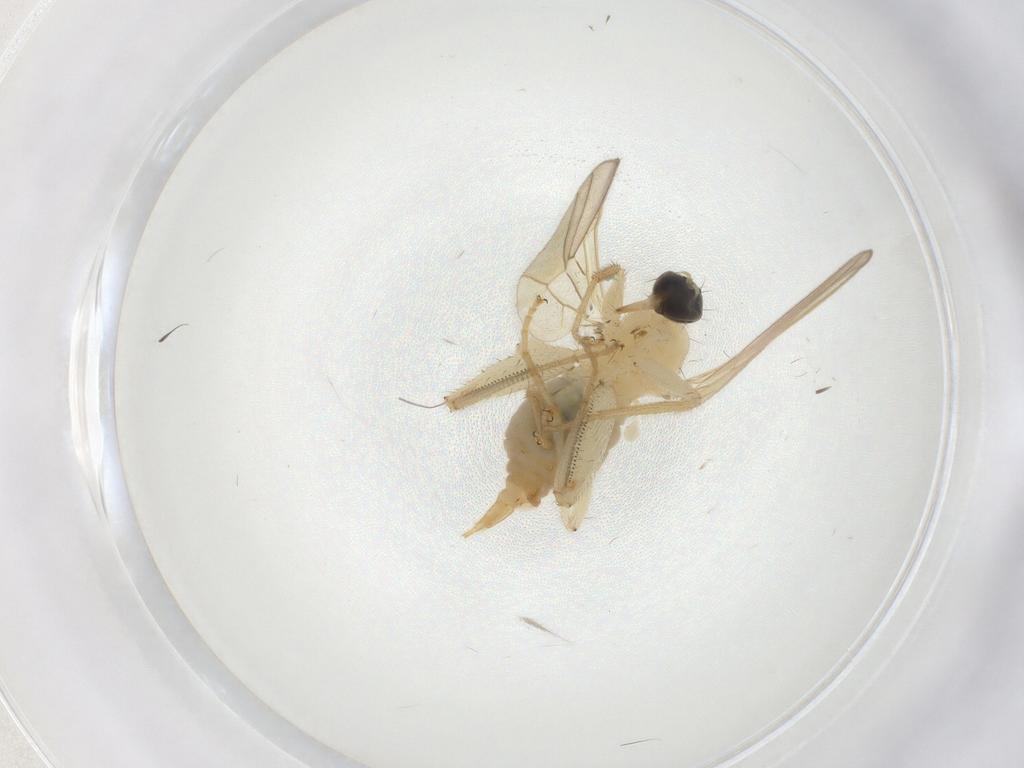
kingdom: Animalia
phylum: Arthropoda
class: Insecta
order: Diptera
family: Hybotidae
